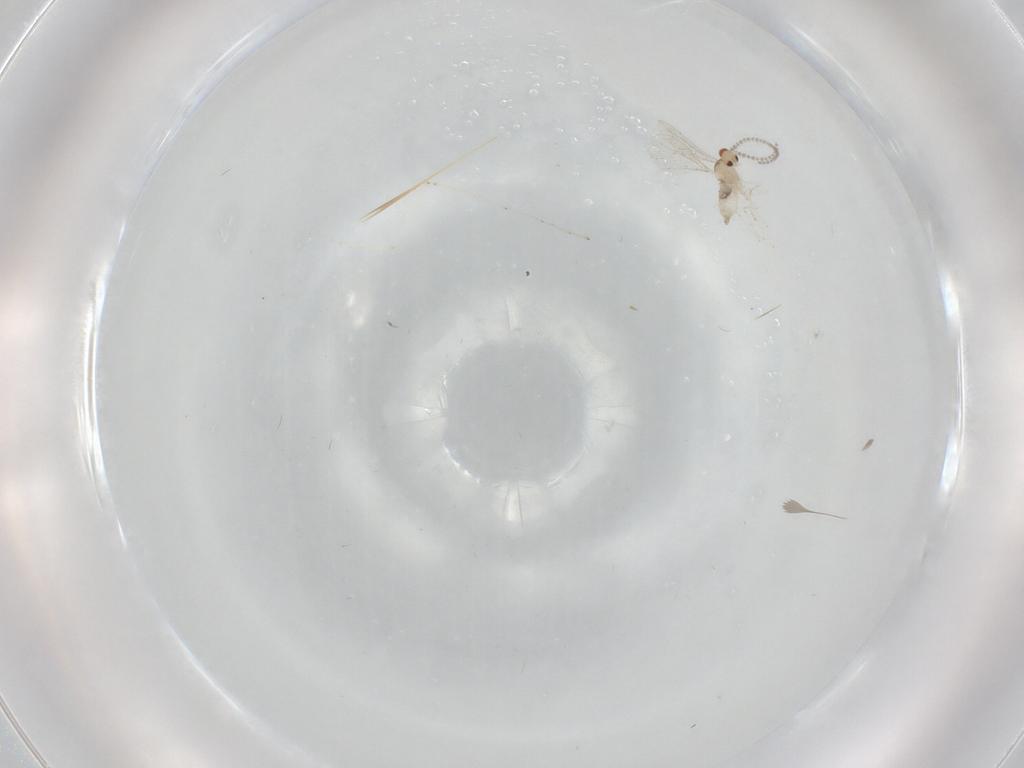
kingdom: Animalia
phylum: Arthropoda
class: Insecta
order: Diptera
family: Cecidomyiidae
